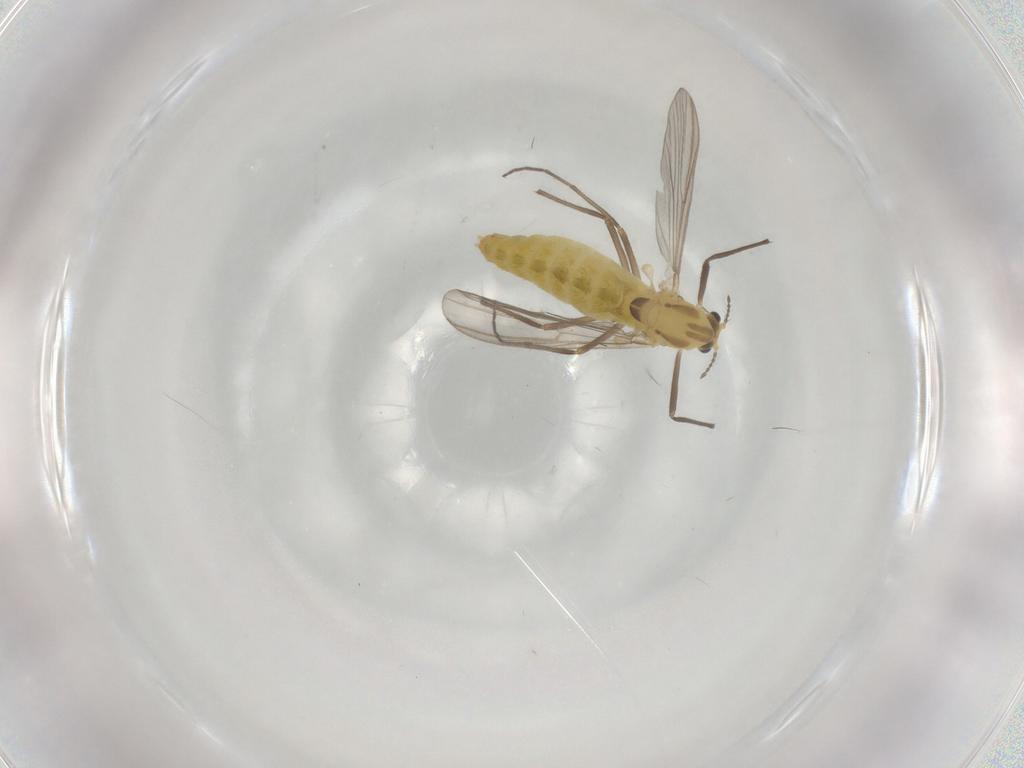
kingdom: Animalia
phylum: Arthropoda
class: Insecta
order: Diptera
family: Chironomidae
